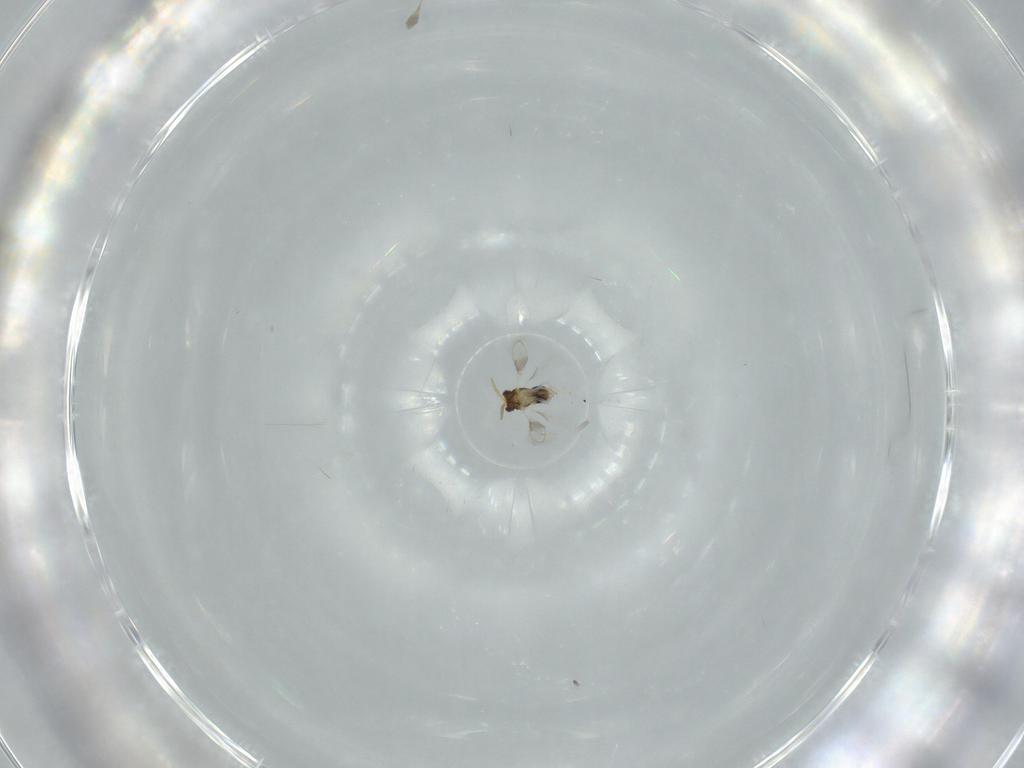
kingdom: Animalia
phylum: Arthropoda
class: Insecta
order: Hymenoptera
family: Aphelinidae
